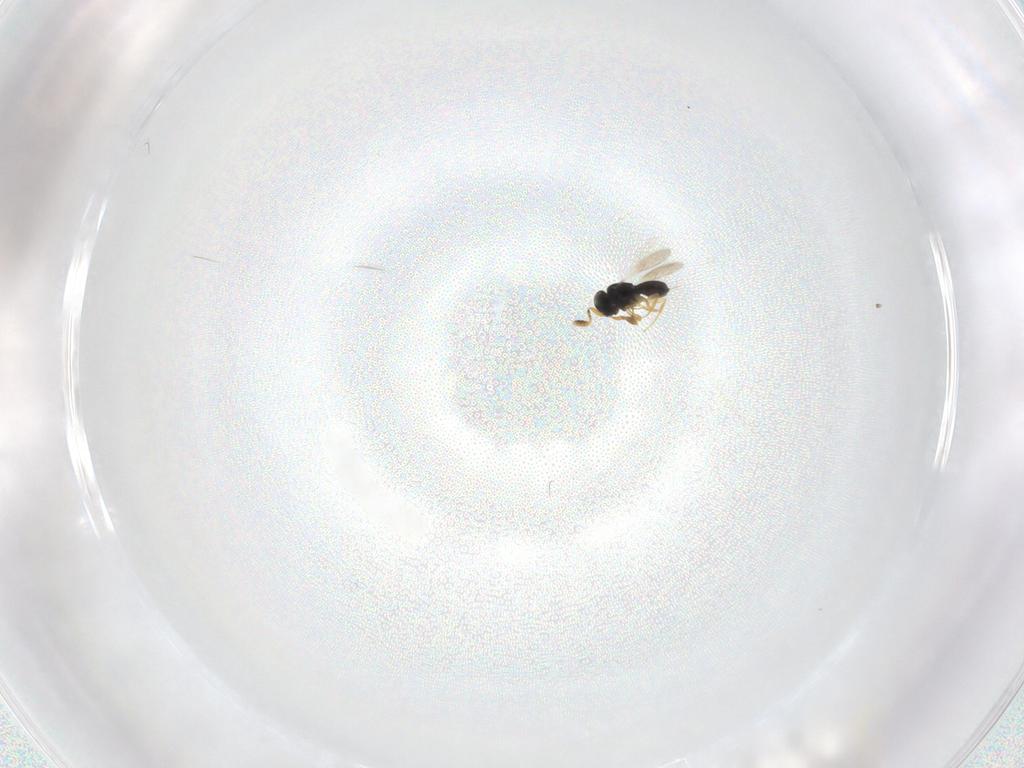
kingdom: Animalia
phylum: Arthropoda
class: Insecta
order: Hymenoptera
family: Scelionidae
